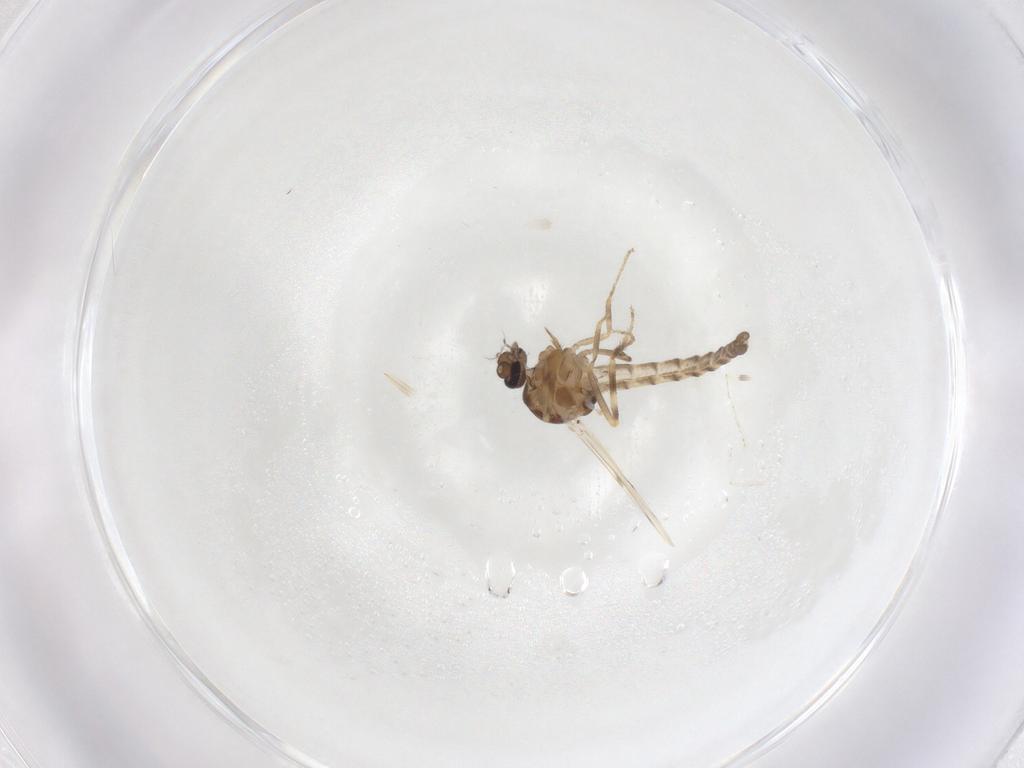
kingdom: Animalia
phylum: Arthropoda
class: Insecta
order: Diptera
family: Ceratopogonidae
